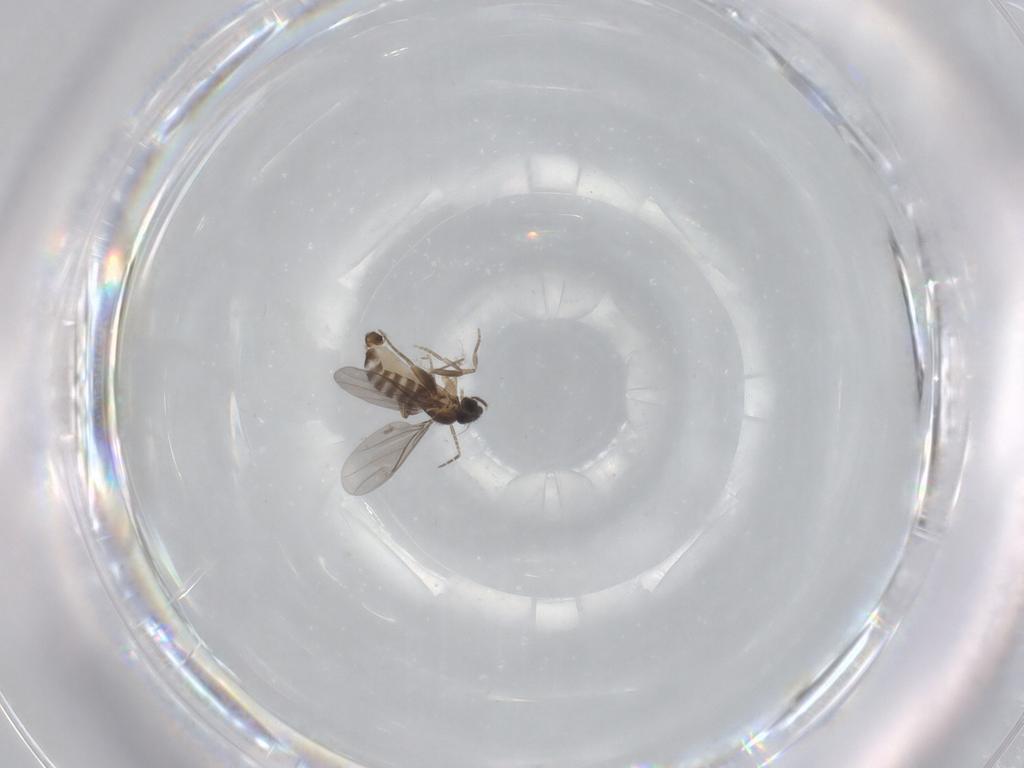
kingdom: Animalia
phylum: Arthropoda
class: Insecta
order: Diptera
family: Sciaridae
